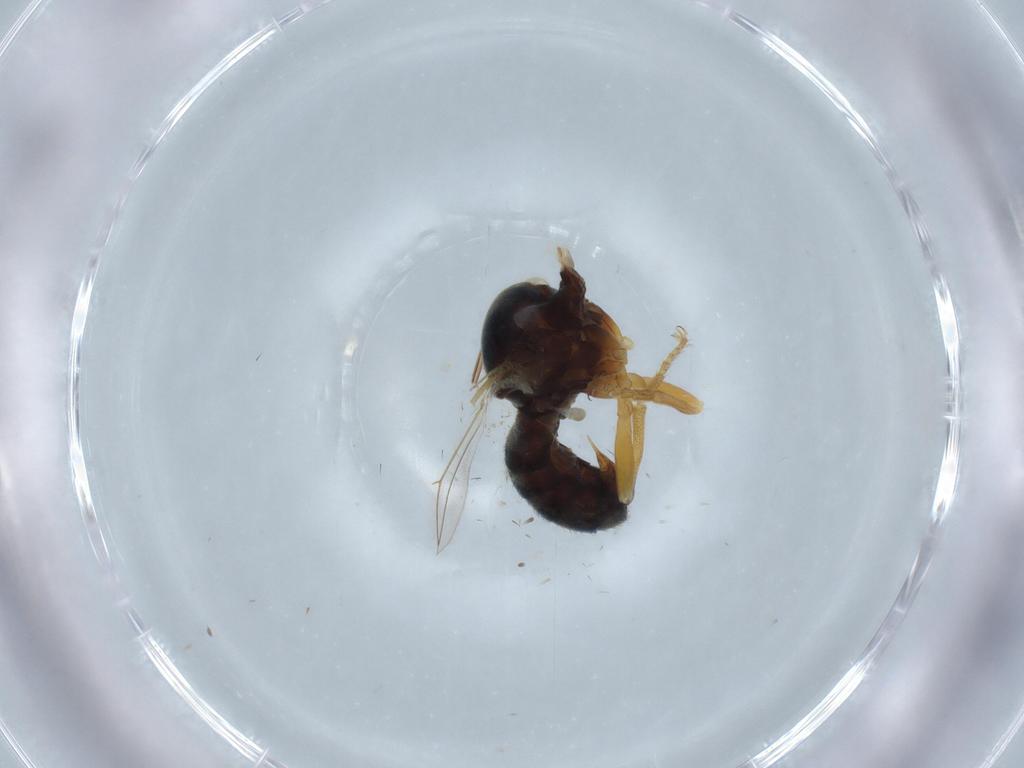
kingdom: Animalia
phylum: Arthropoda
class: Insecta
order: Diptera
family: Pipunculidae
